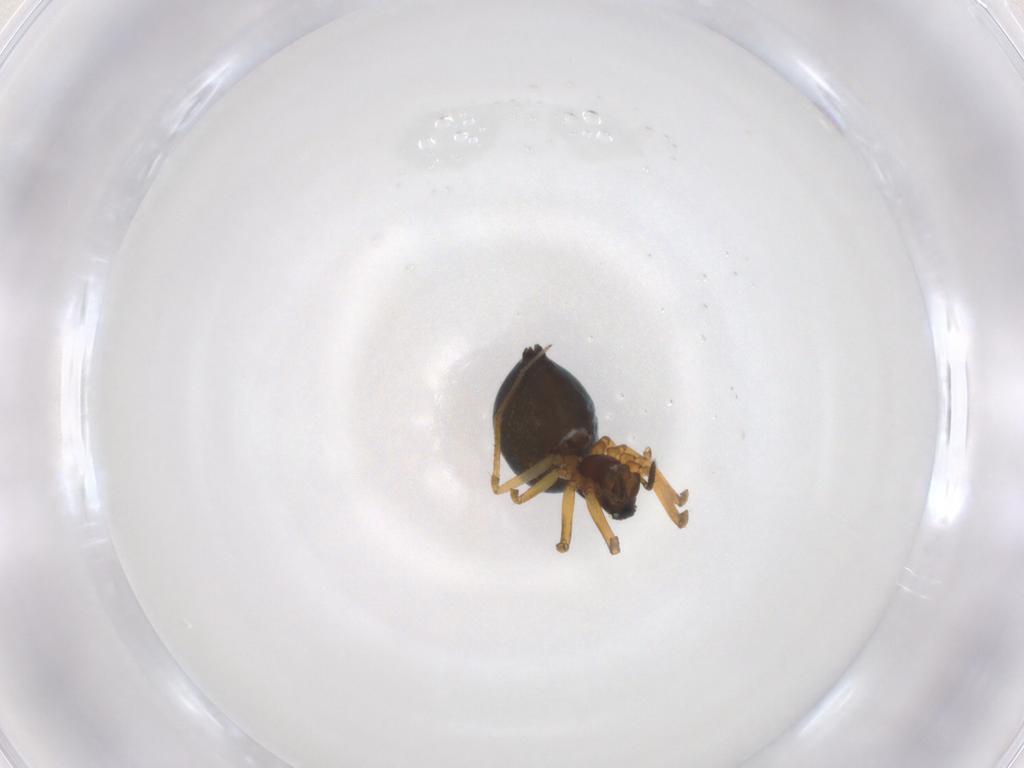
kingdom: Animalia
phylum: Arthropoda
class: Arachnida
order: Araneae
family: Linyphiidae
